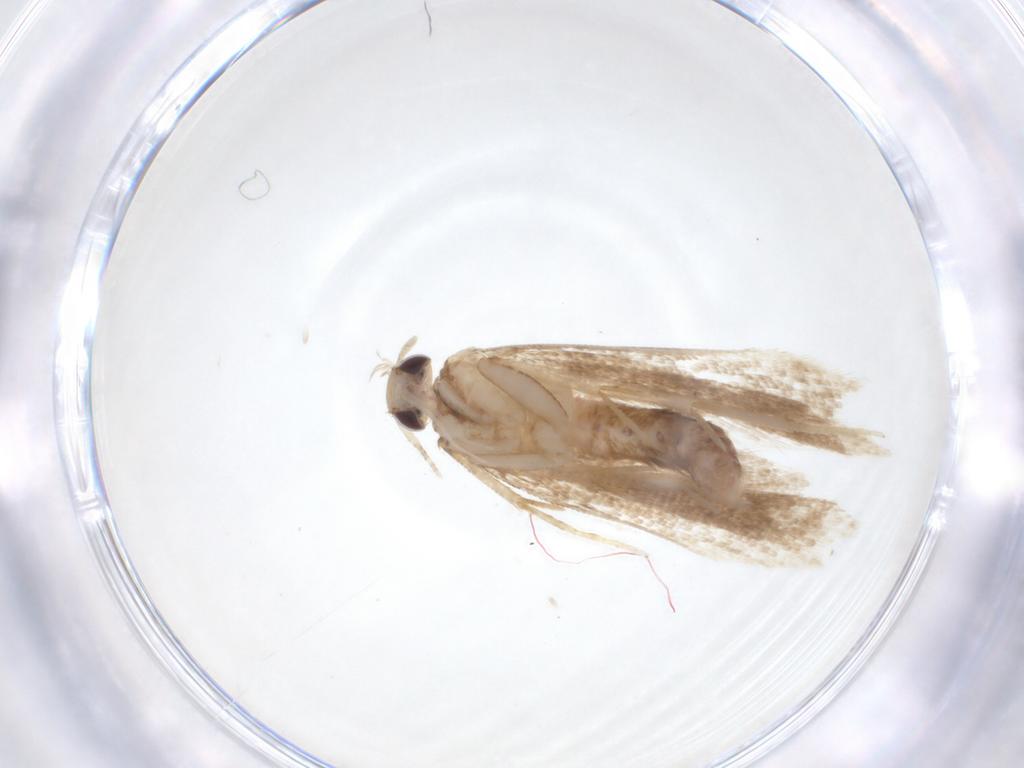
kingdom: Animalia
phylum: Arthropoda
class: Insecta
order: Lepidoptera
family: Gelechiidae
